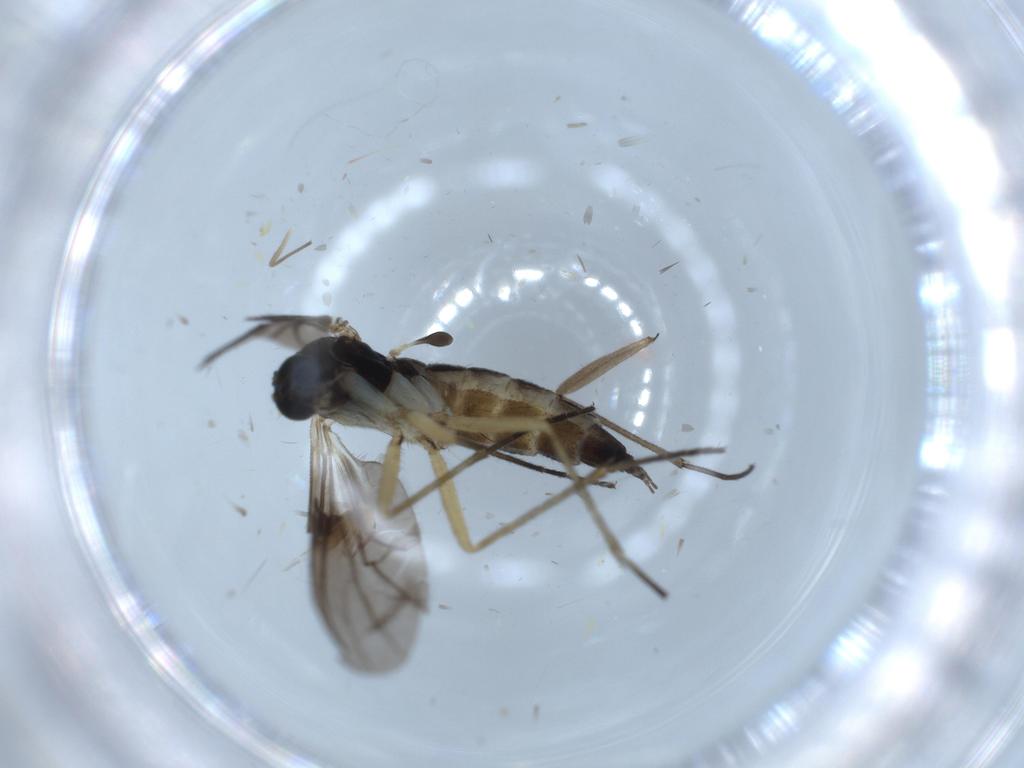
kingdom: Animalia
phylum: Arthropoda
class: Insecta
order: Diptera
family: Sciaridae
